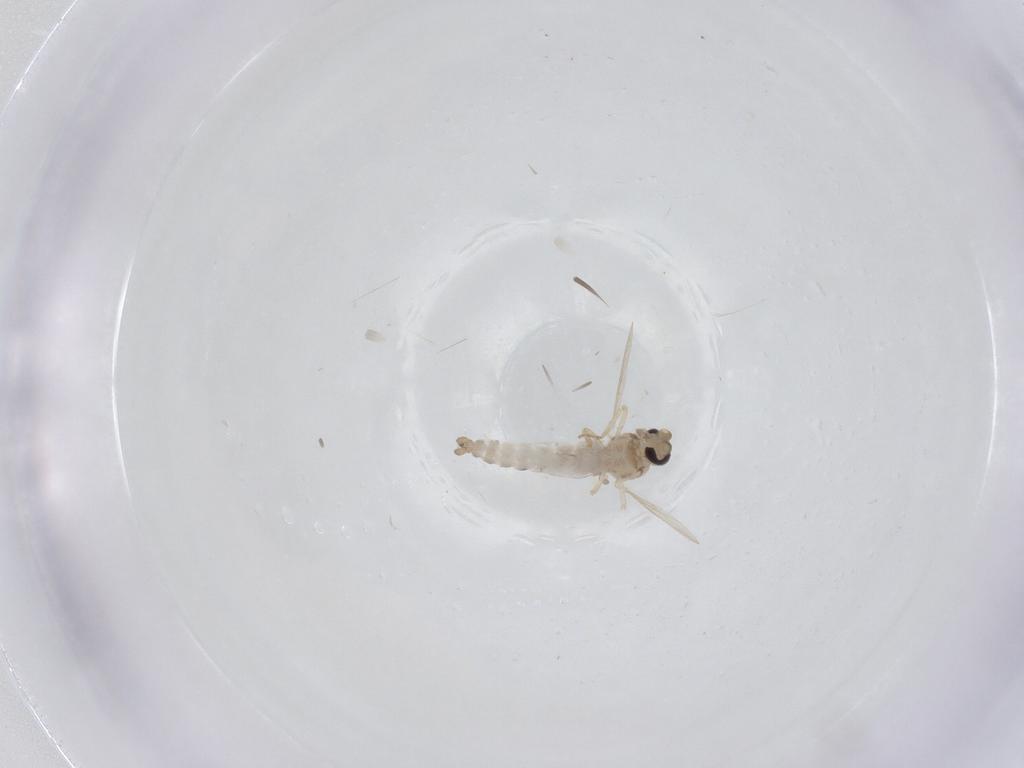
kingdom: Animalia
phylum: Arthropoda
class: Insecta
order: Diptera
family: Ceratopogonidae
